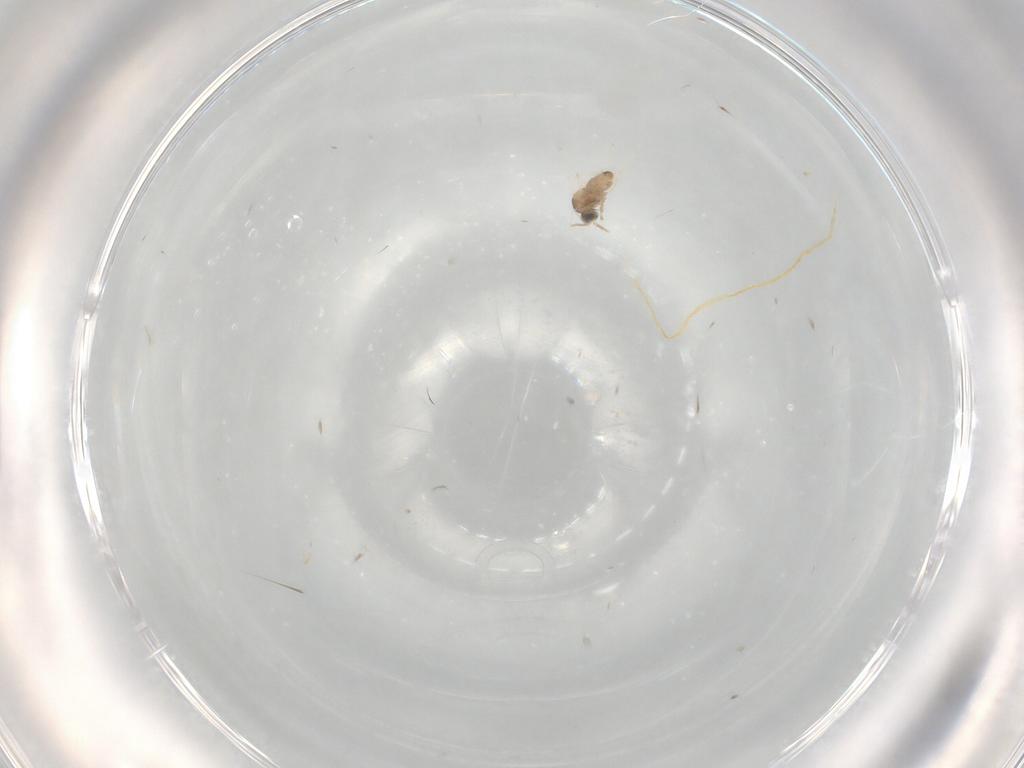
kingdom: Animalia
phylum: Arthropoda
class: Insecta
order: Diptera
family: Cecidomyiidae
